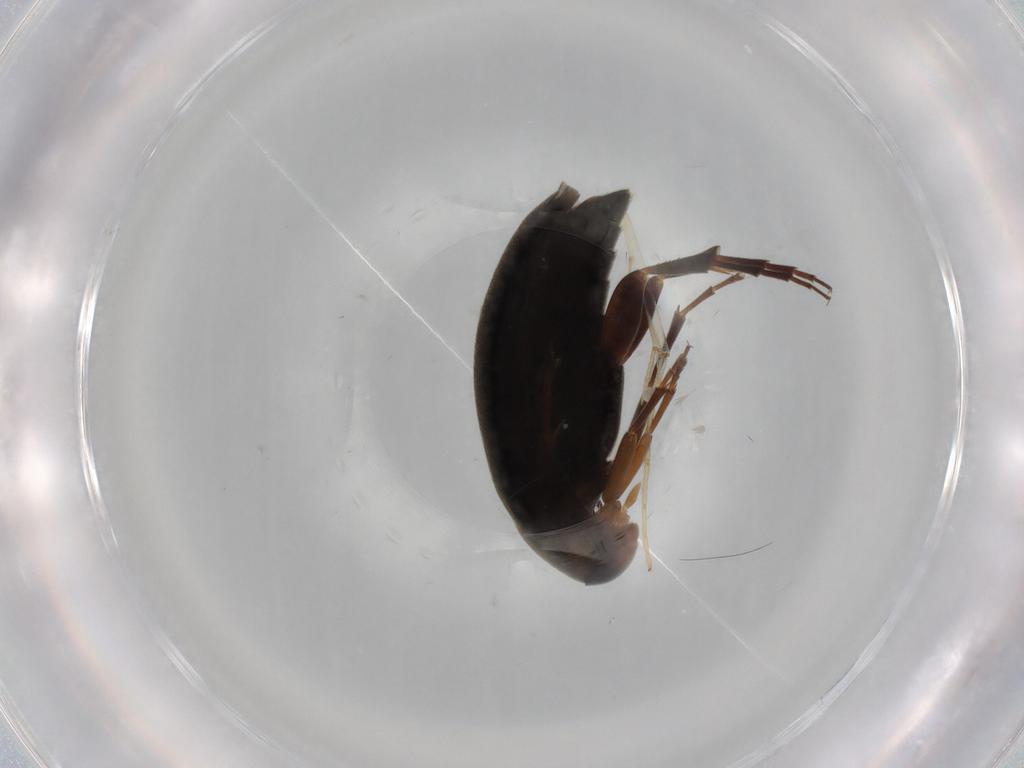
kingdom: Animalia
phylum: Arthropoda
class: Insecta
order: Coleoptera
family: Scraptiidae
